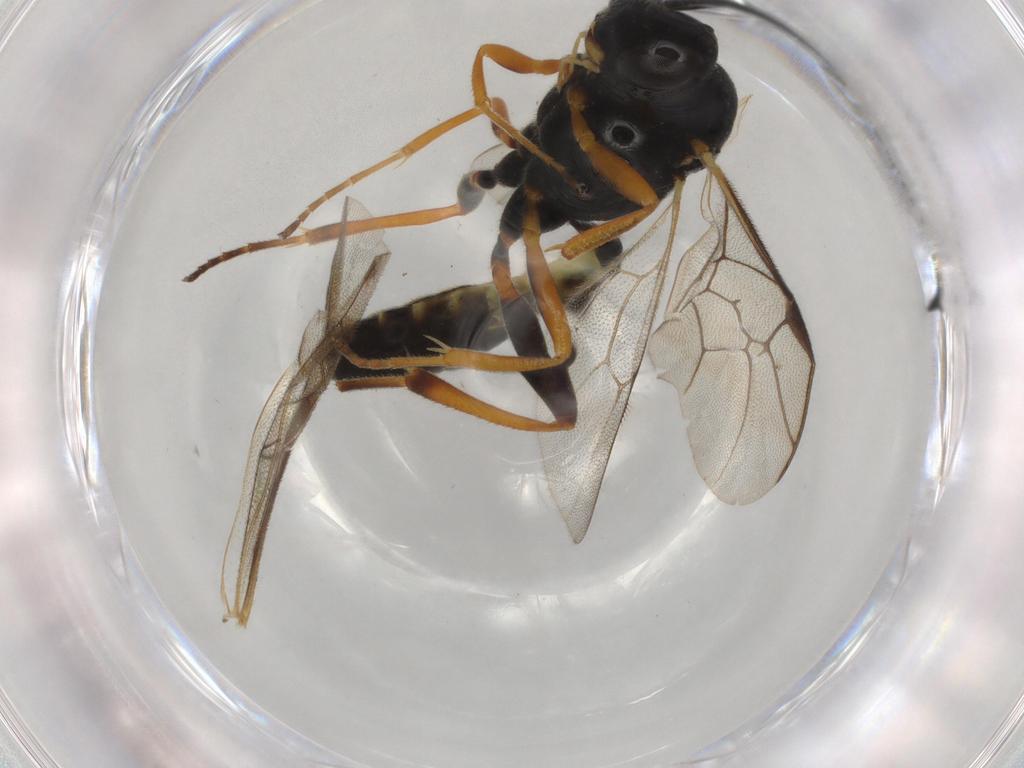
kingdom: Animalia
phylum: Arthropoda
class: Insecta
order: Hymenoptera
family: Ichneumonidae
